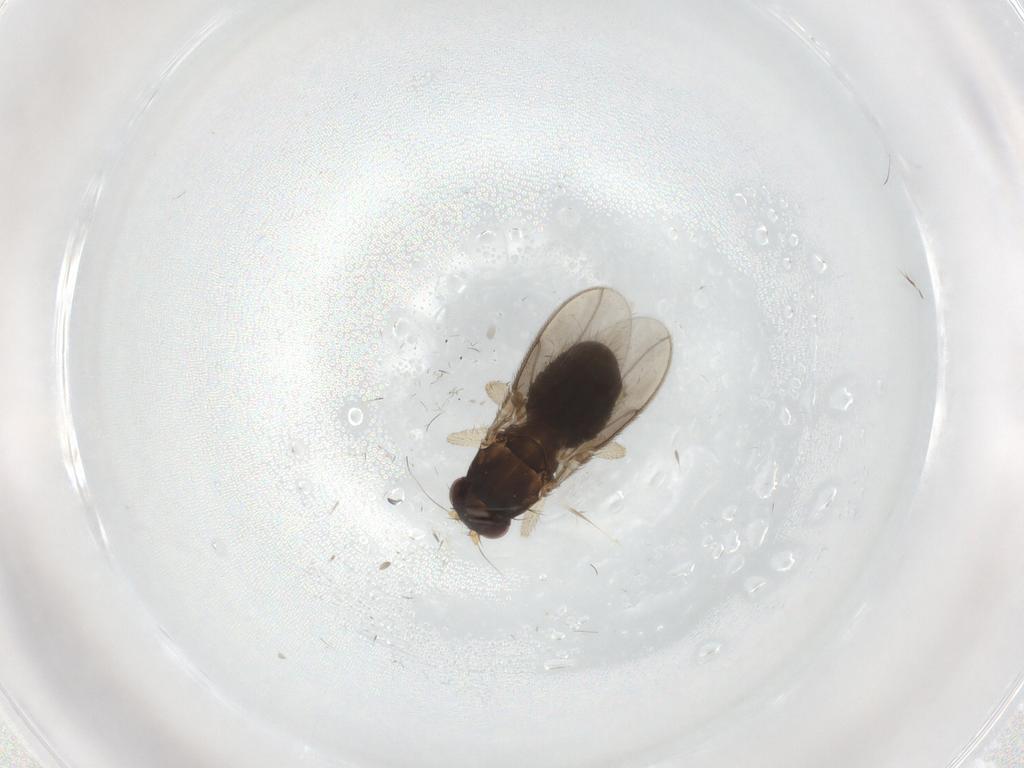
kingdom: Animalia
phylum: Arthropoda
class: Insecta
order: Diptera
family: Sphaeroceridae
